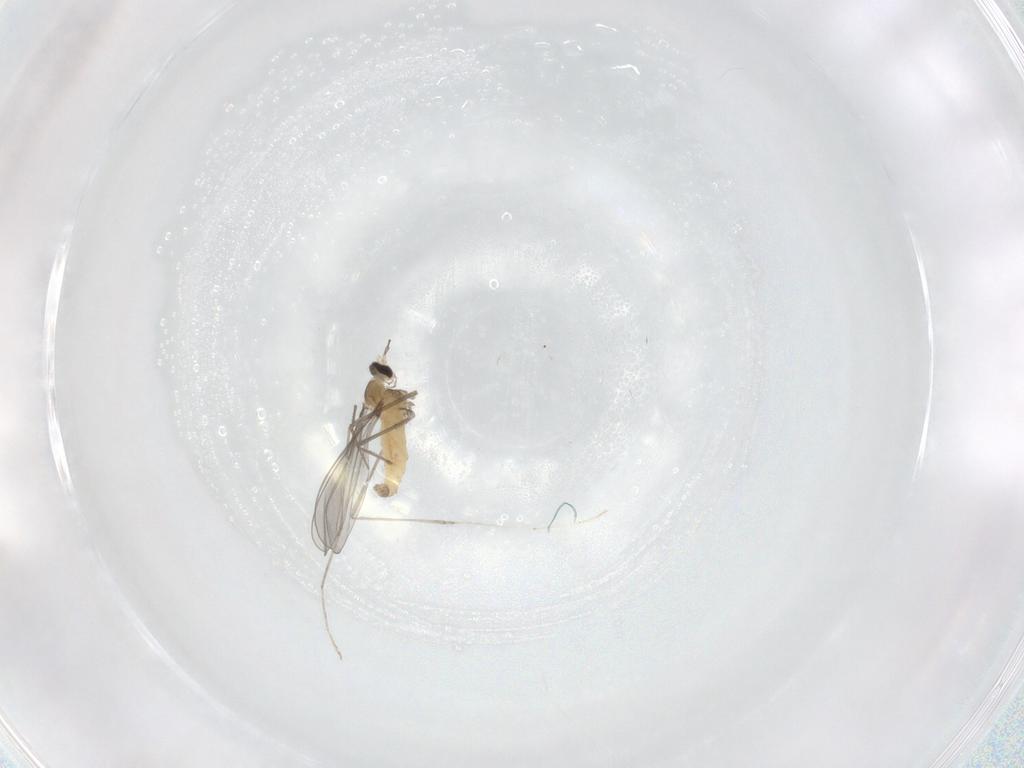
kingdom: Animalia
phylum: Arthropoda
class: Insecta
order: Diptera
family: Cecidomyiidae
